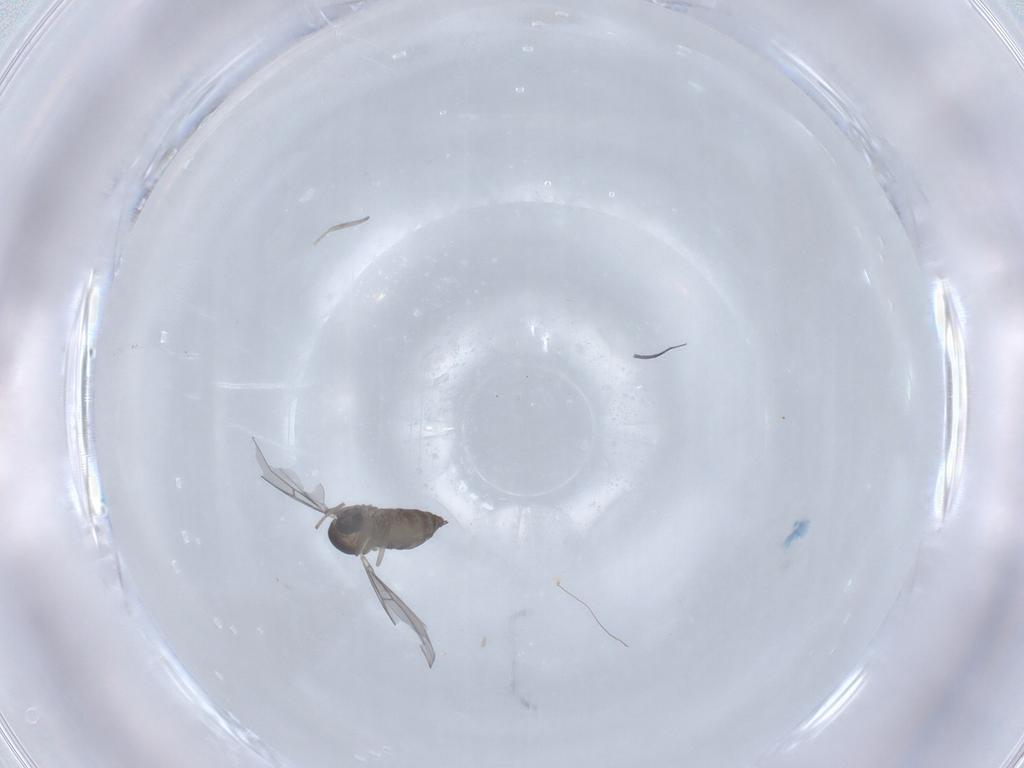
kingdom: Animalia
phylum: Arthropoda
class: Insecta
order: Diptera
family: Cecidomyiidae
